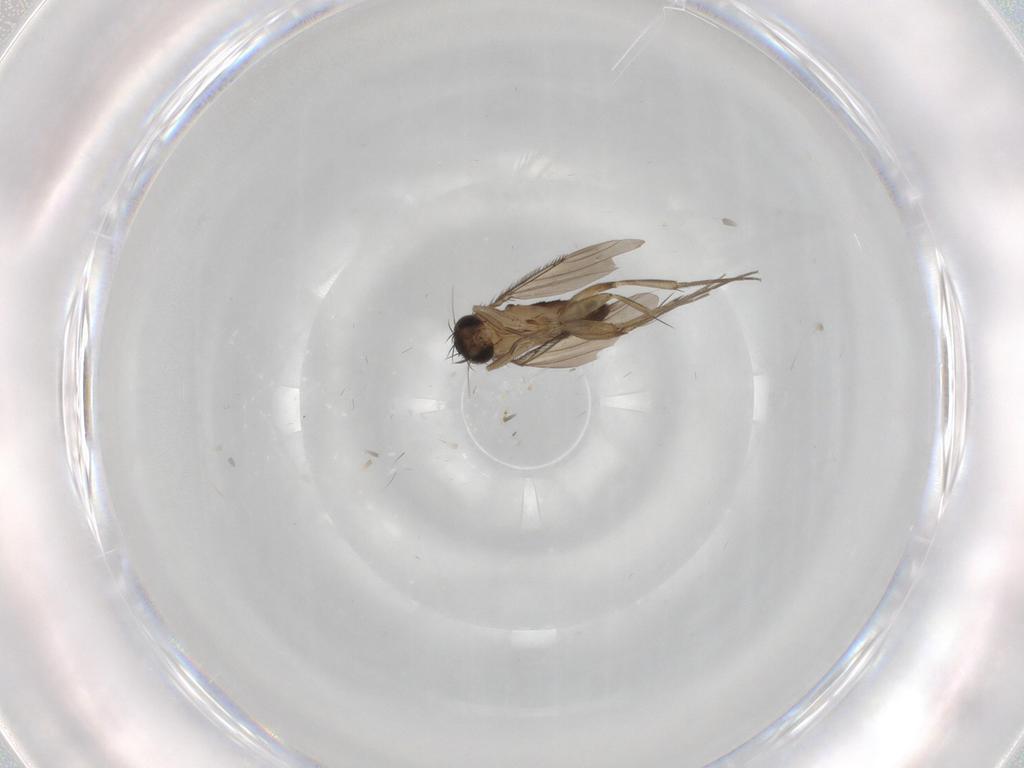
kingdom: Animalia
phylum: Arthropoda
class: Insecta
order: Diptera
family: Phoridae
